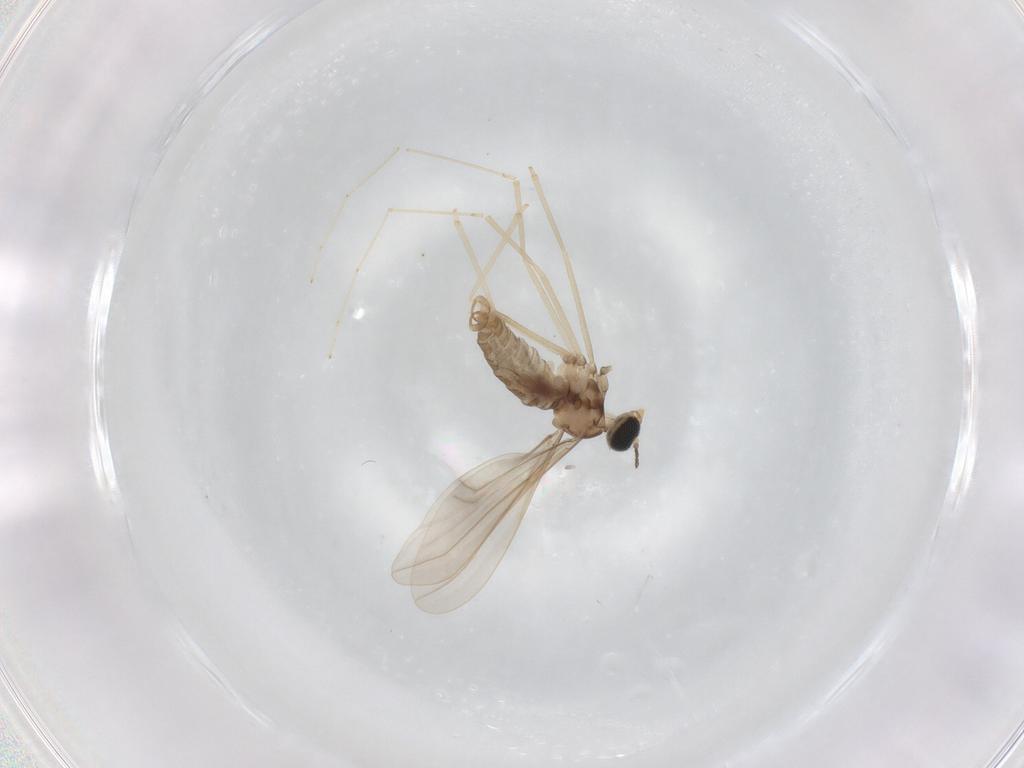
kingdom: Animalia
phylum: Arthropoda
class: Insecta
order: Diptera
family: Cecidomyiidae
